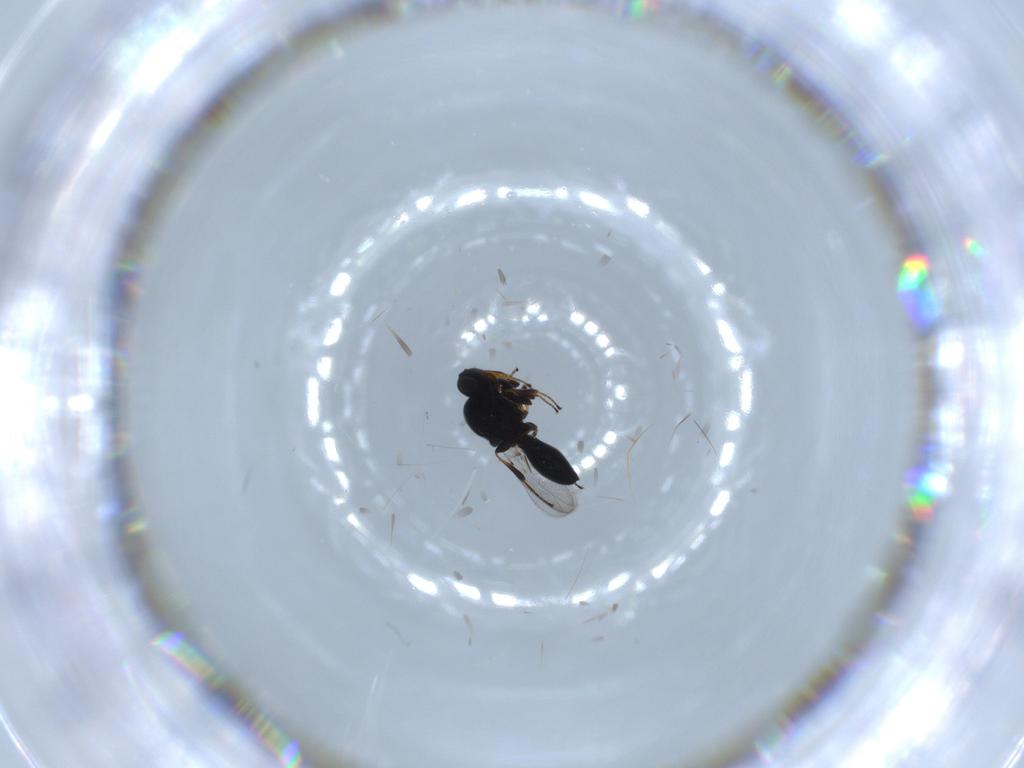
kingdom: Animalia
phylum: Arthropoda
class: Insecta
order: Hymenoptera
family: Platygastridae
